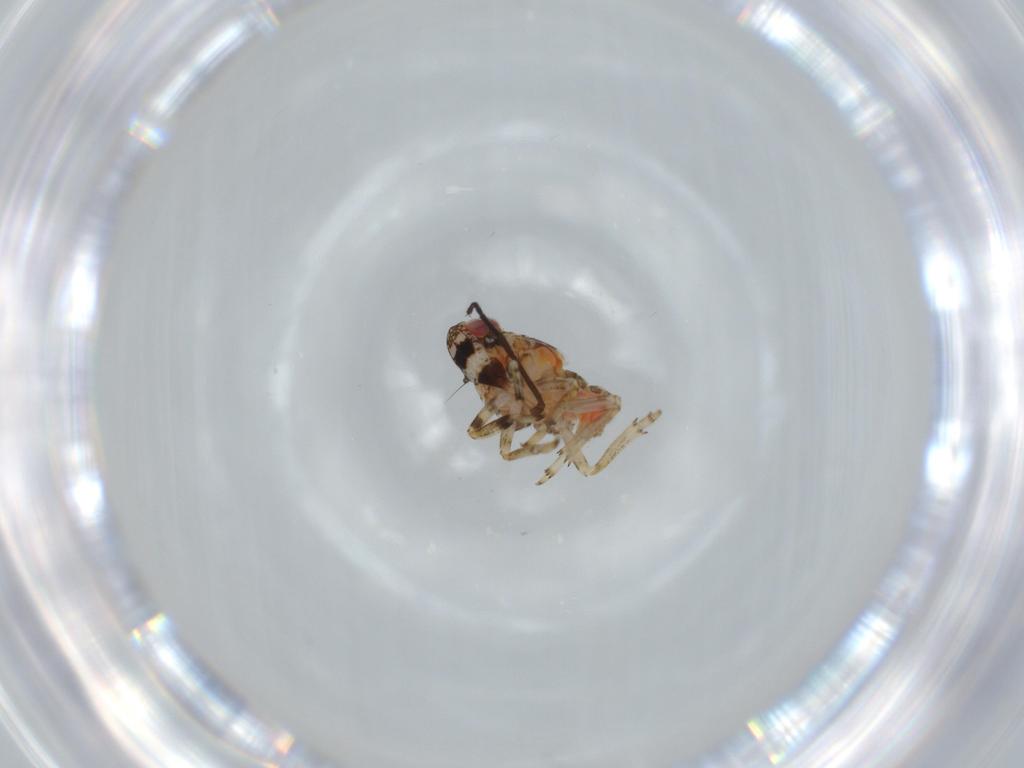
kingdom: Animalia
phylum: Arthropoda
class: Insecta
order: Hemiptera
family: Issidae
